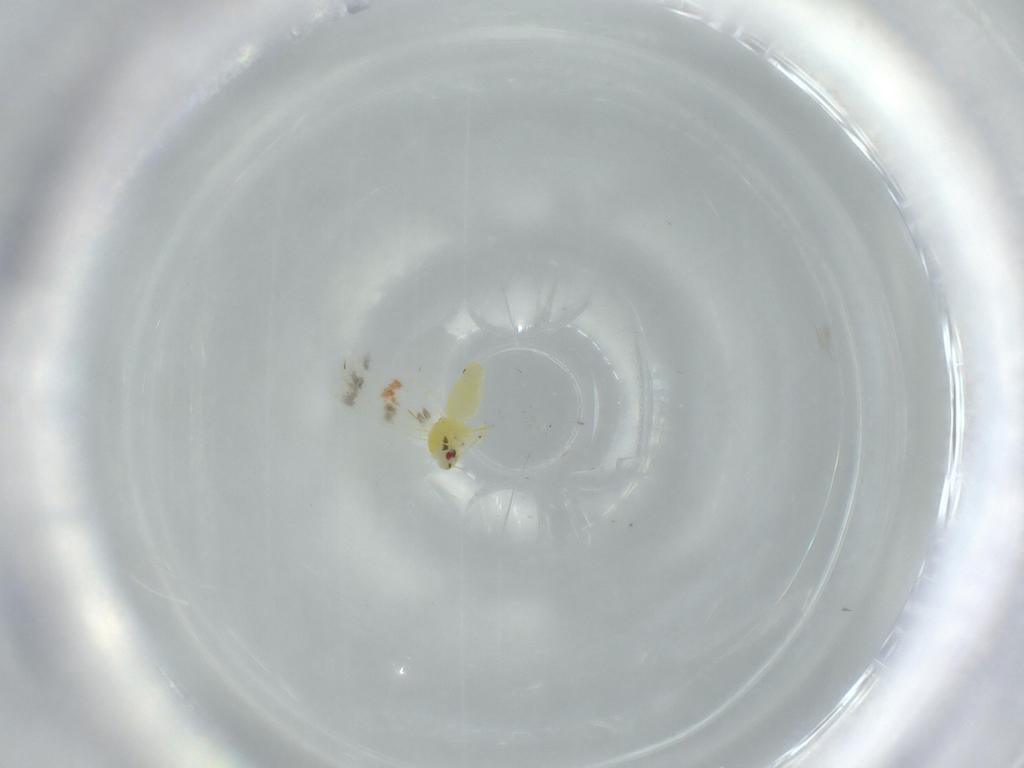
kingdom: Animalia
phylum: Arthropoda
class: Insecta
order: Hemiptera
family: Aleyrodidae
